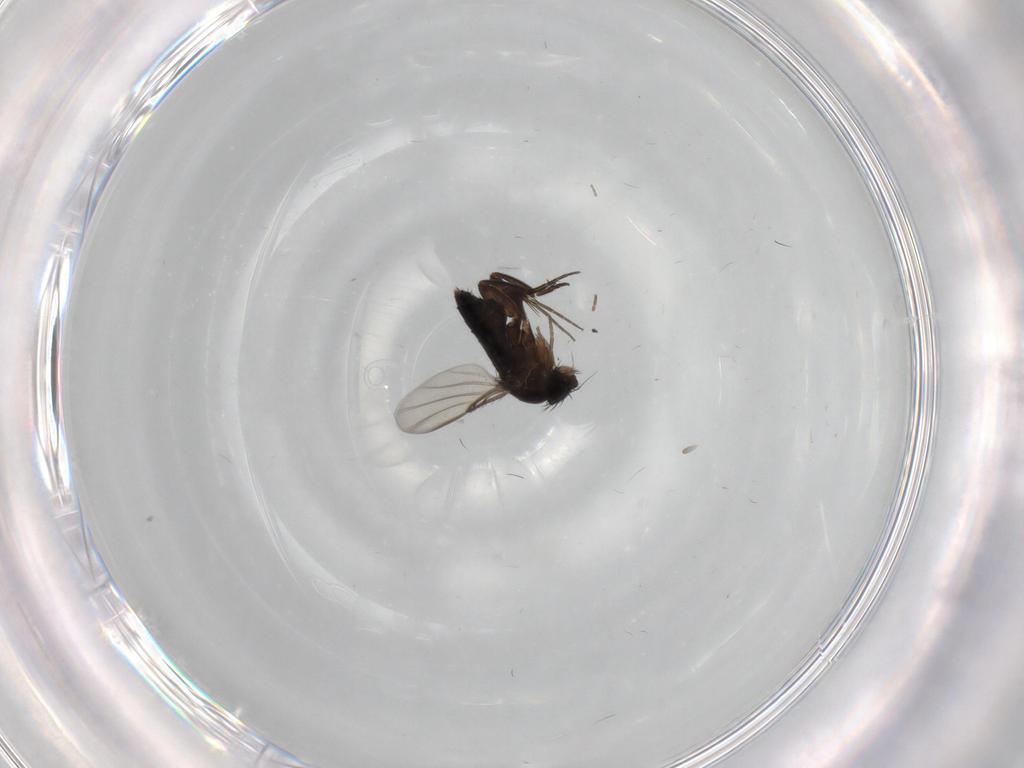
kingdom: Animalia
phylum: Arthropoda
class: Insecta
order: Diptera
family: Phoridae
